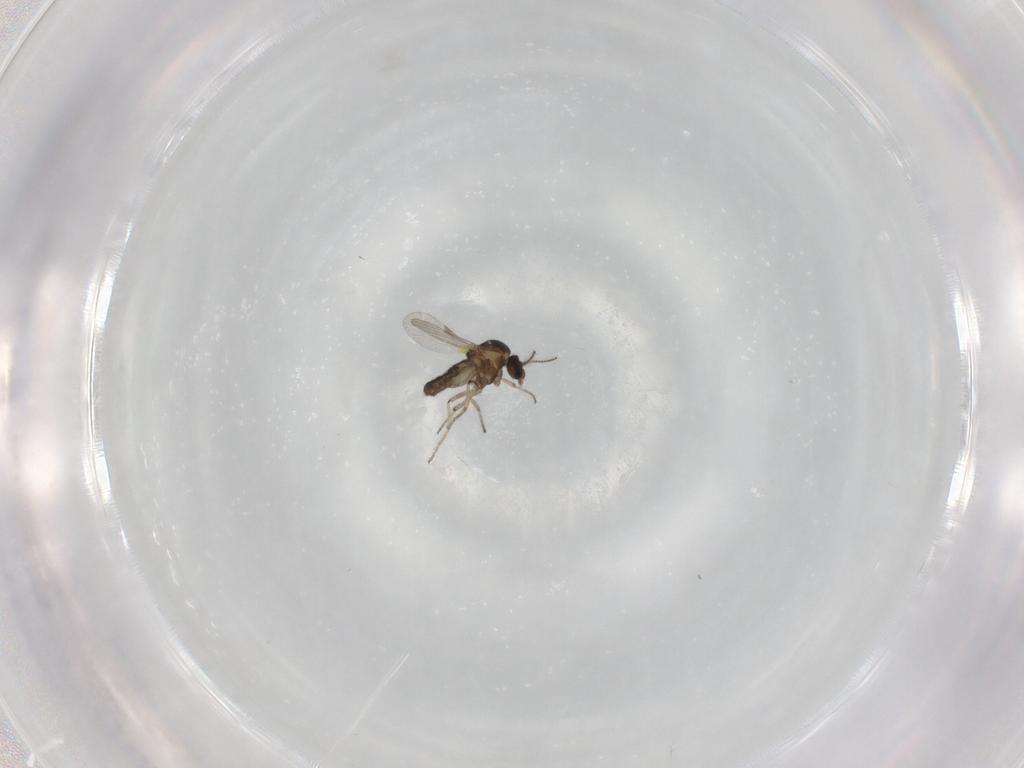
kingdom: Animalia
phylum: Arthropoda
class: Insecta
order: Diptera
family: Ceratopogonidae
